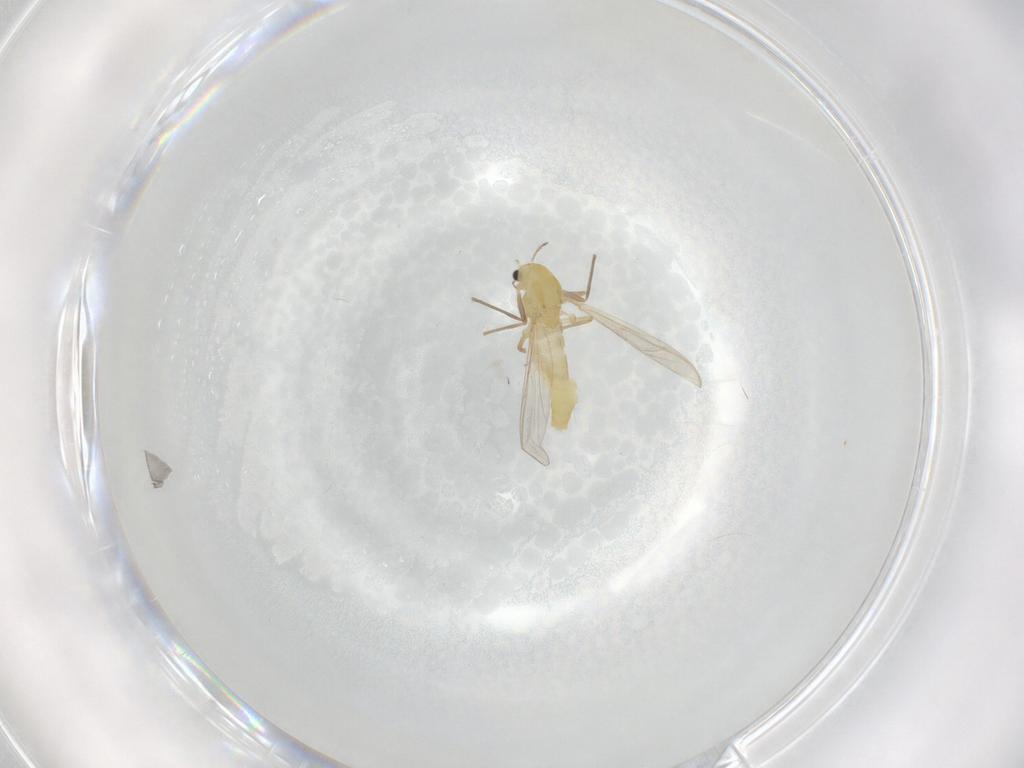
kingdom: Animalia
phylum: Arthropoda
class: Insecta
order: Diptera
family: Chironomidae
